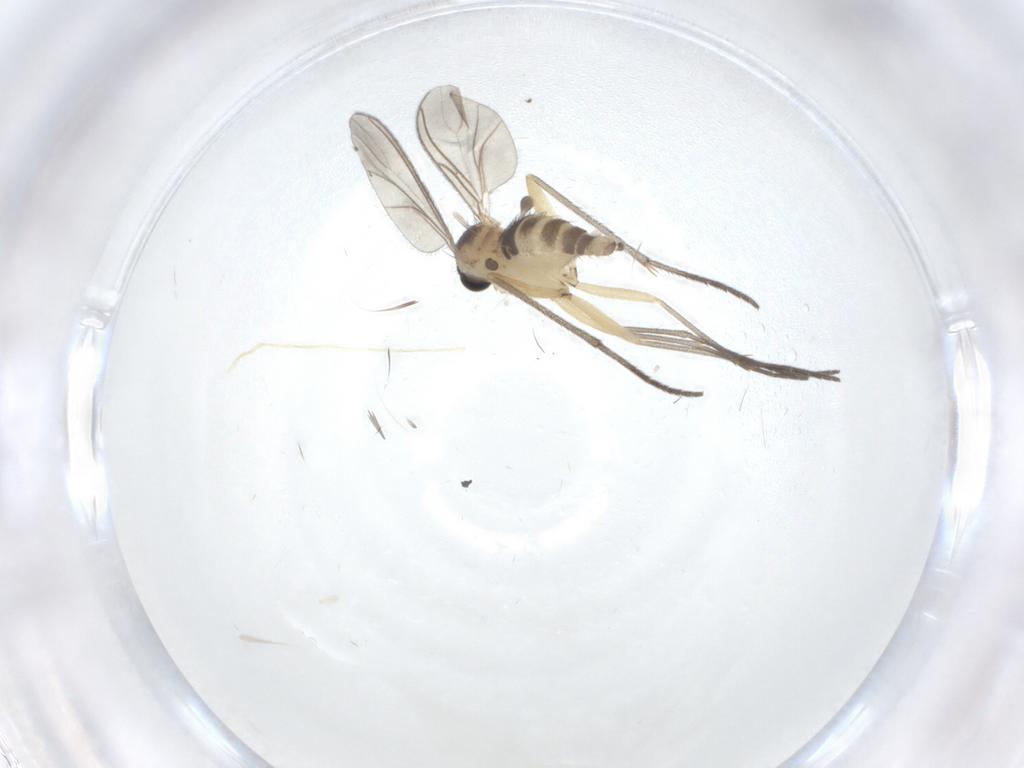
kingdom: Animalia
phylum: Arthropoda
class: Insecta
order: Diptera
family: Sciaridae
